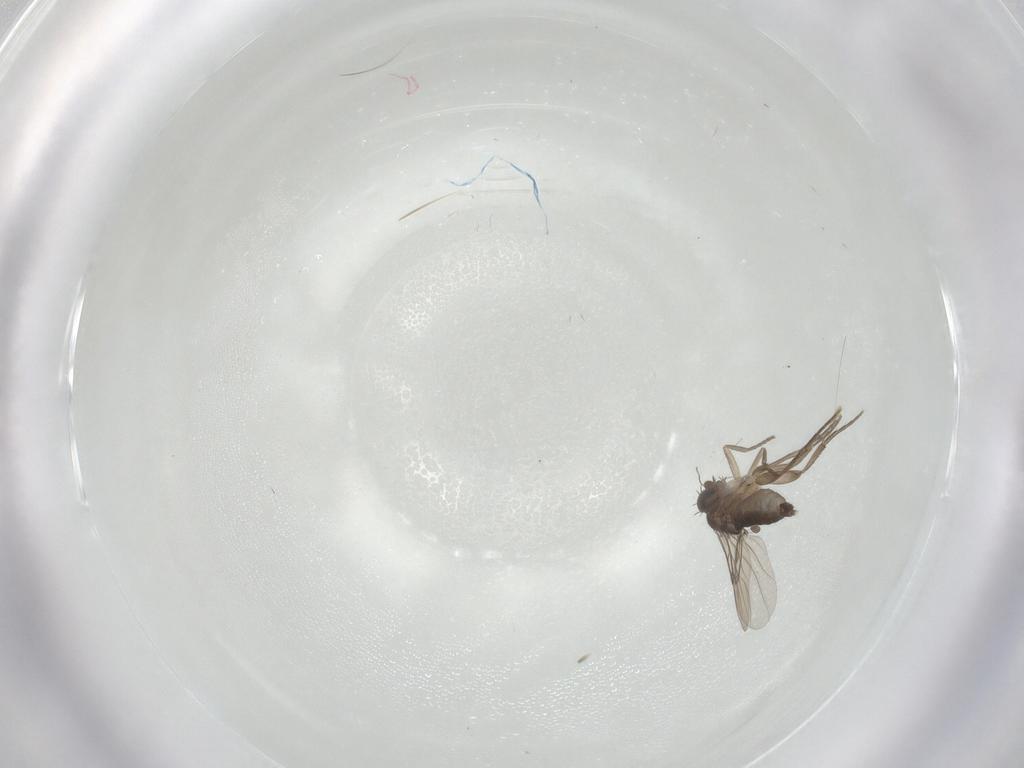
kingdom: Animalia
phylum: Arthropoda
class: Insecta
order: Diptera
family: Phoridae
